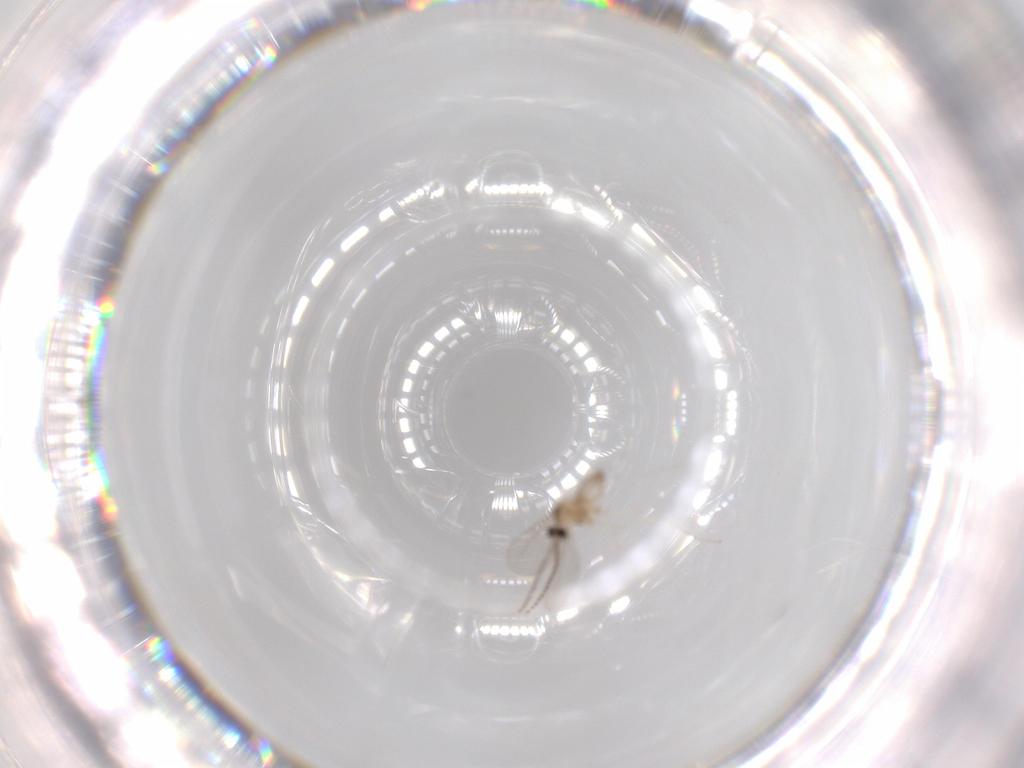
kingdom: Animalia
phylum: Arthropoda
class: Insecta
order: Diptera
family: Cecidomyiidae
